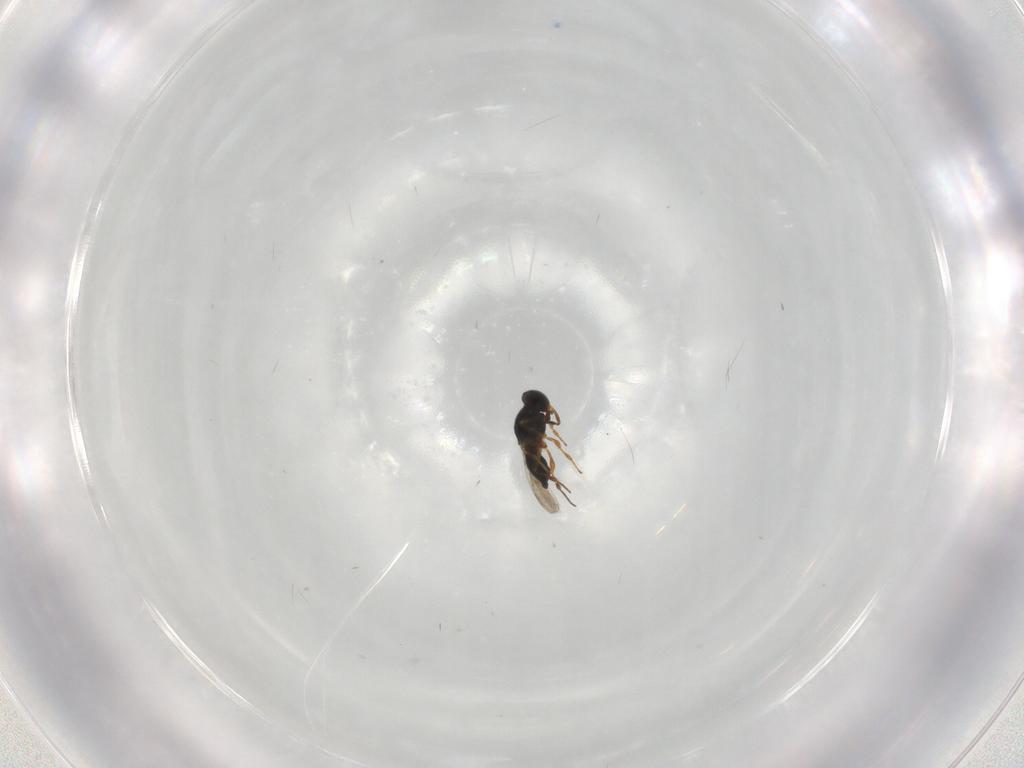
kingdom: Animalia
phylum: Arthropoda
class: Insecta
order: Hymenoptera
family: Platygastridae
